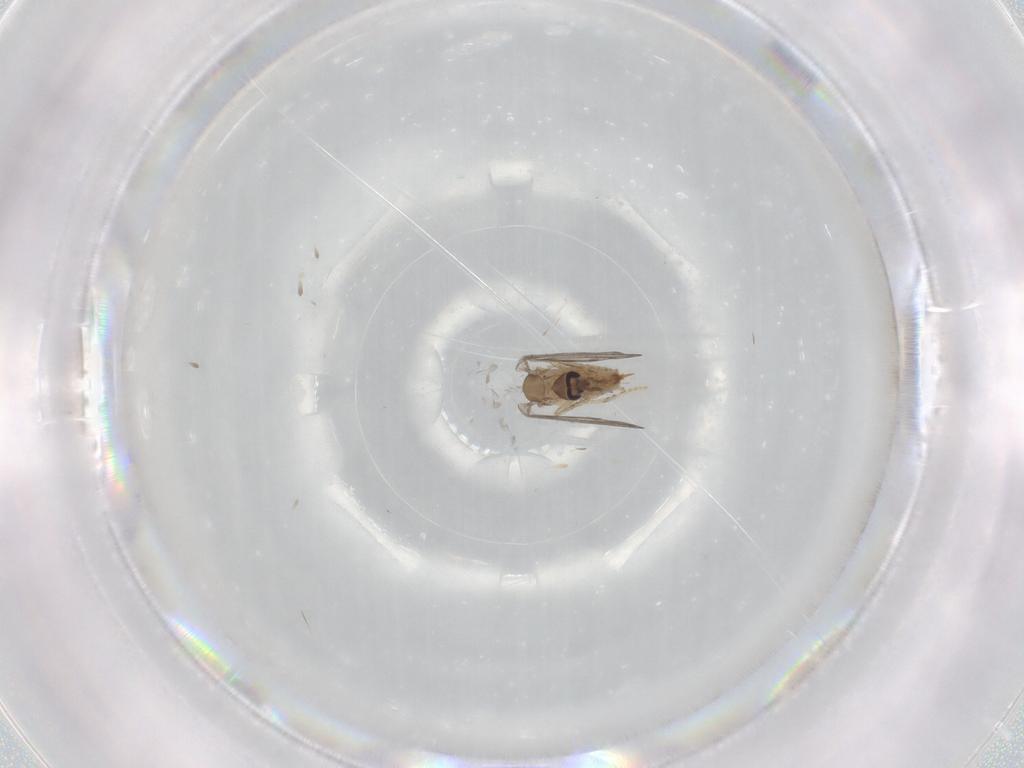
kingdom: Animalia
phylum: Arthropoda
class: Insecta
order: Diptera
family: Psychodidae
